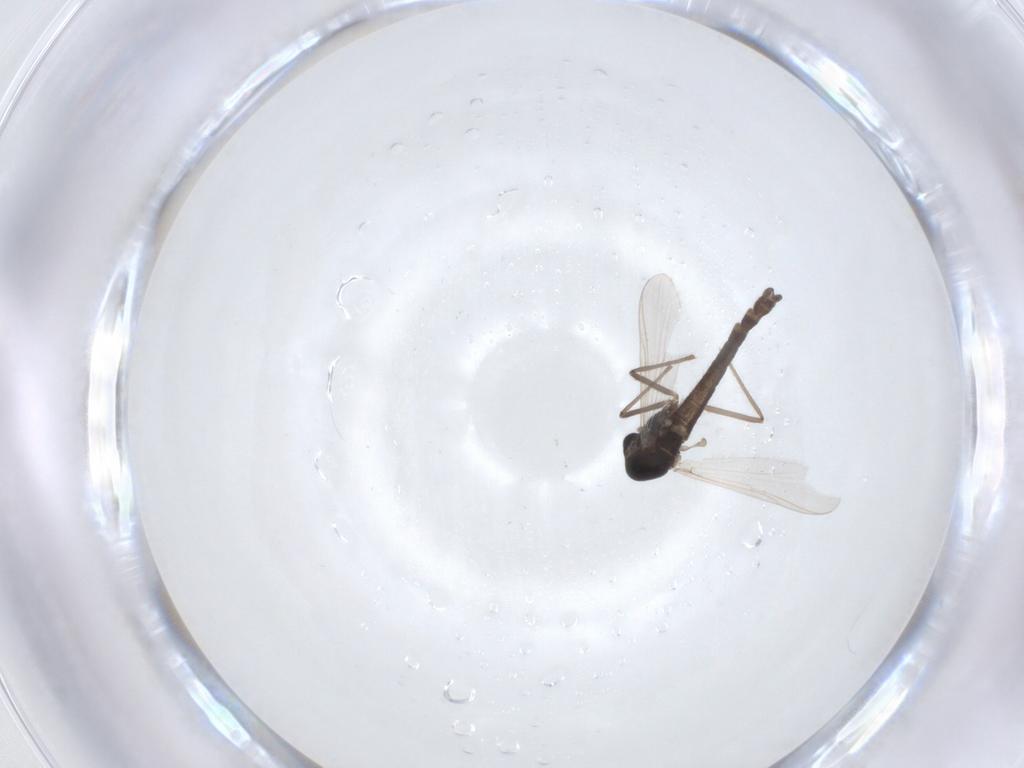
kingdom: Animalia
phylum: Arthropoda
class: Insecta
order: Diptera
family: Chironomidae
